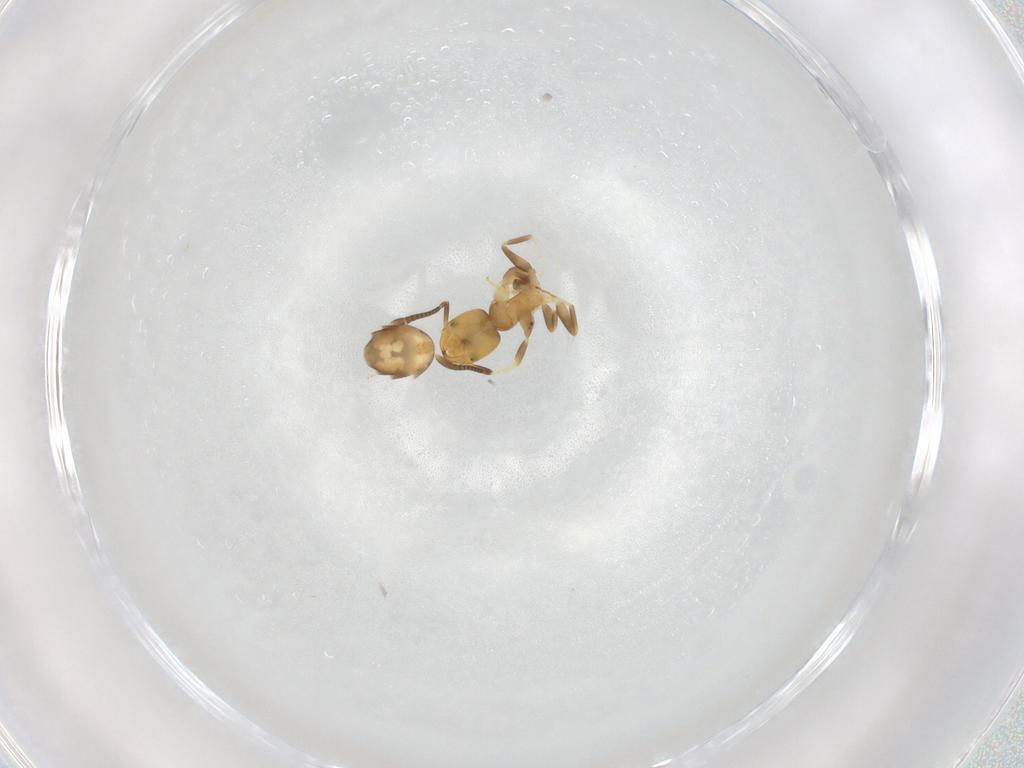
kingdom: Animalia
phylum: Arthropoda
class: Insecta
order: Hymenoptera
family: Formicidae
